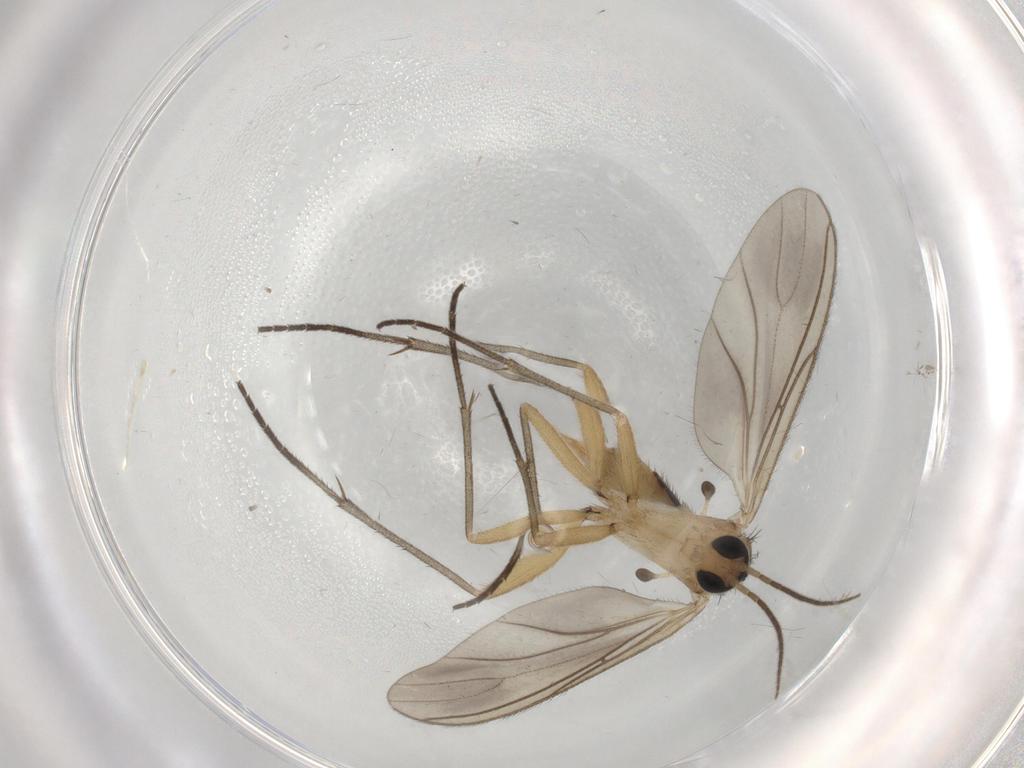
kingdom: Animalia
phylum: Arthropoda
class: Insecta
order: Diptera
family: Sciaridae
